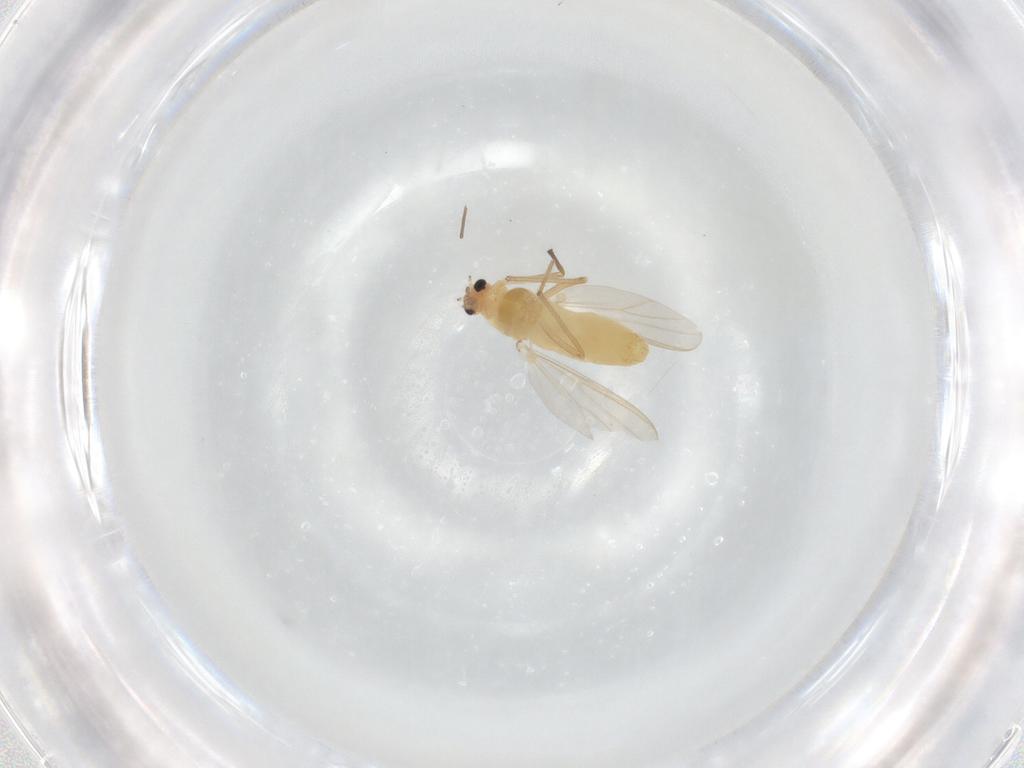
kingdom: Animalia
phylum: Arthropoda
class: Insecta
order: Diptera
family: Chironomidae
